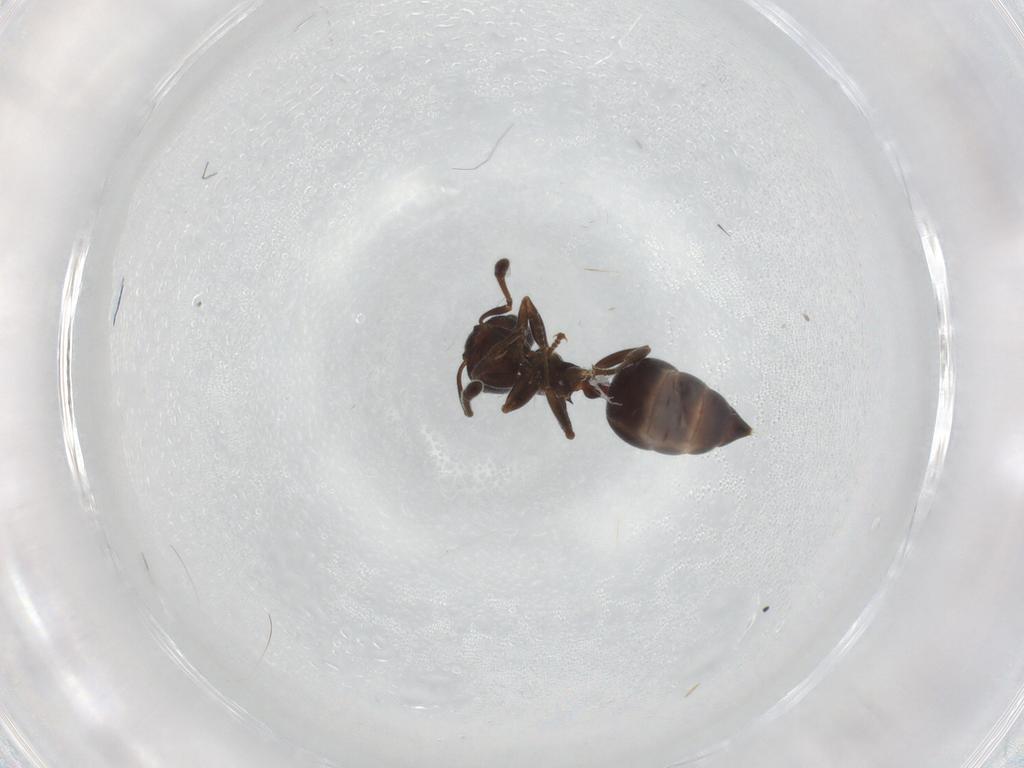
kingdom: Animalia
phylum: Arthropoda
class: Insecta
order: Hymenoptera
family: Formicidae
